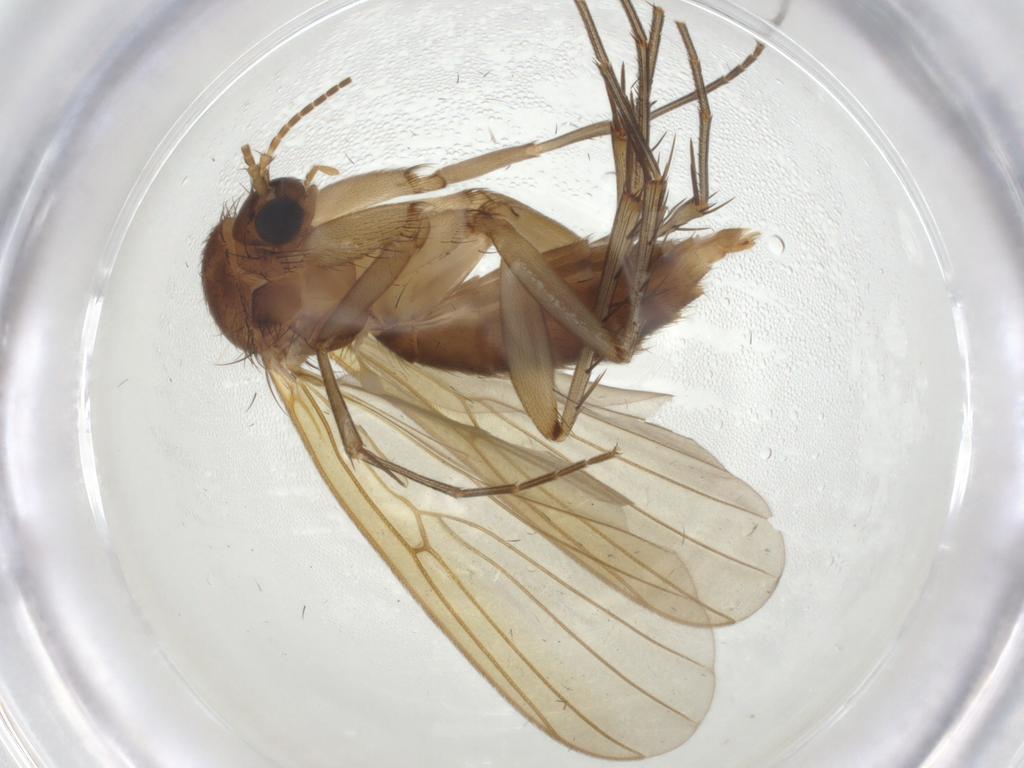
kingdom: Animalia
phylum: Arthropoda
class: Insecta
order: Diptera
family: Mycetophilidae
